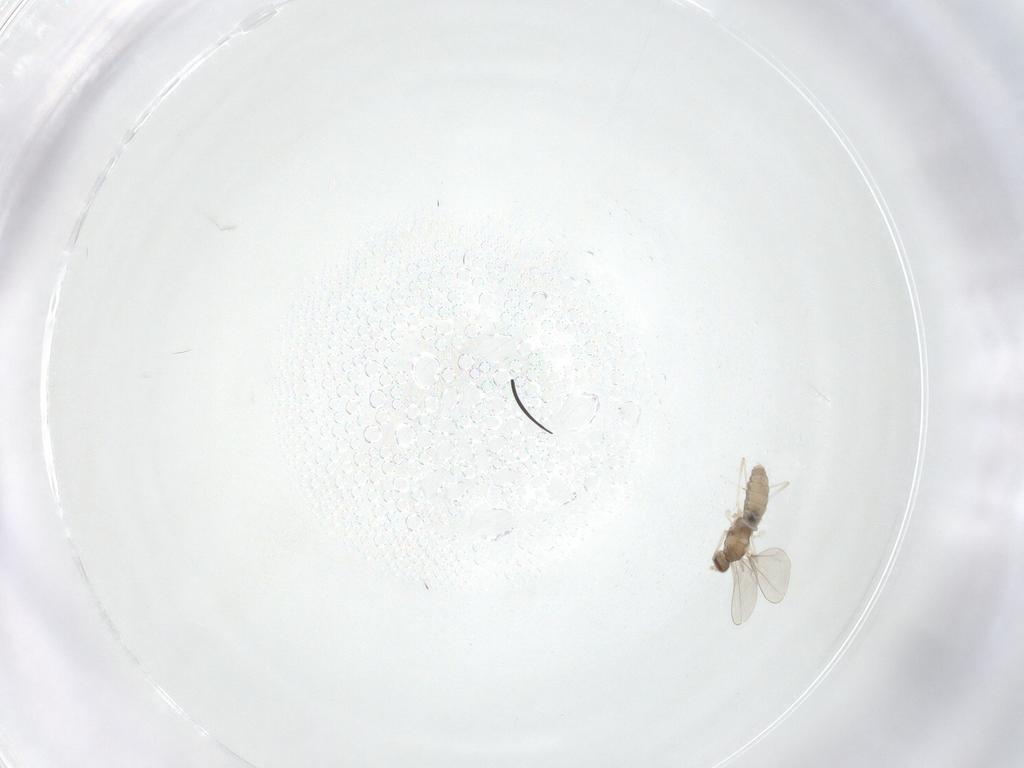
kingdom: Animalia
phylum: Arthropoda
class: Insecta
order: Diptera
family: Cecidomyiidae
